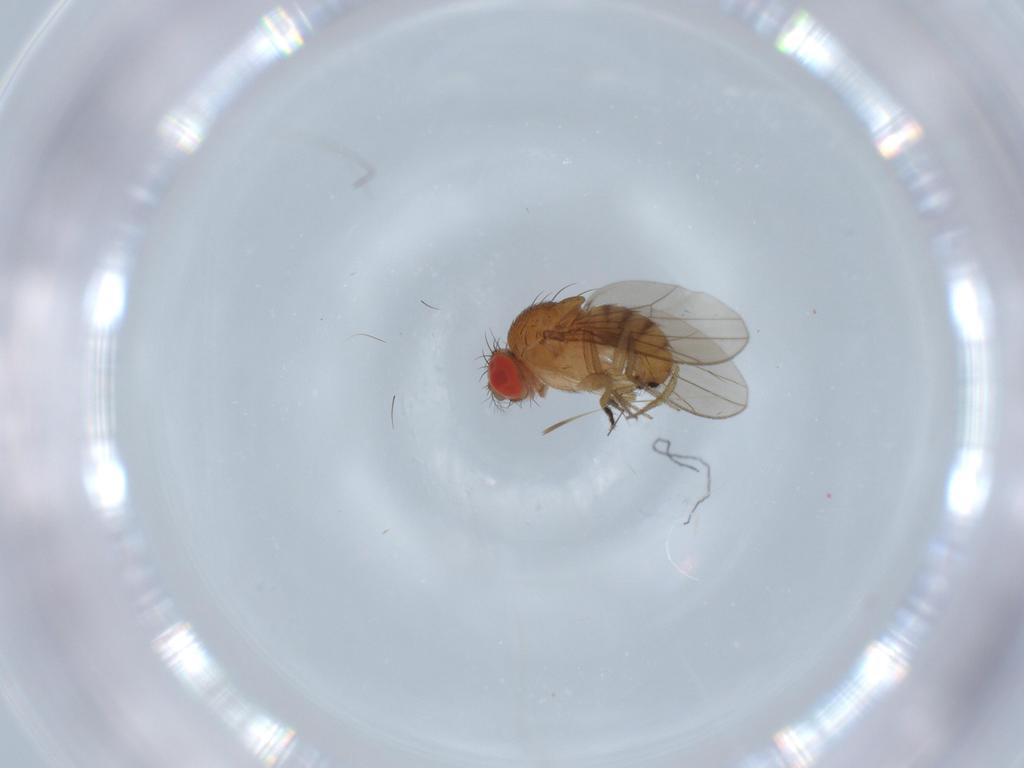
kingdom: Animalia
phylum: Arthropoda
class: Insecta
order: Diptera
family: Drosophilidae
